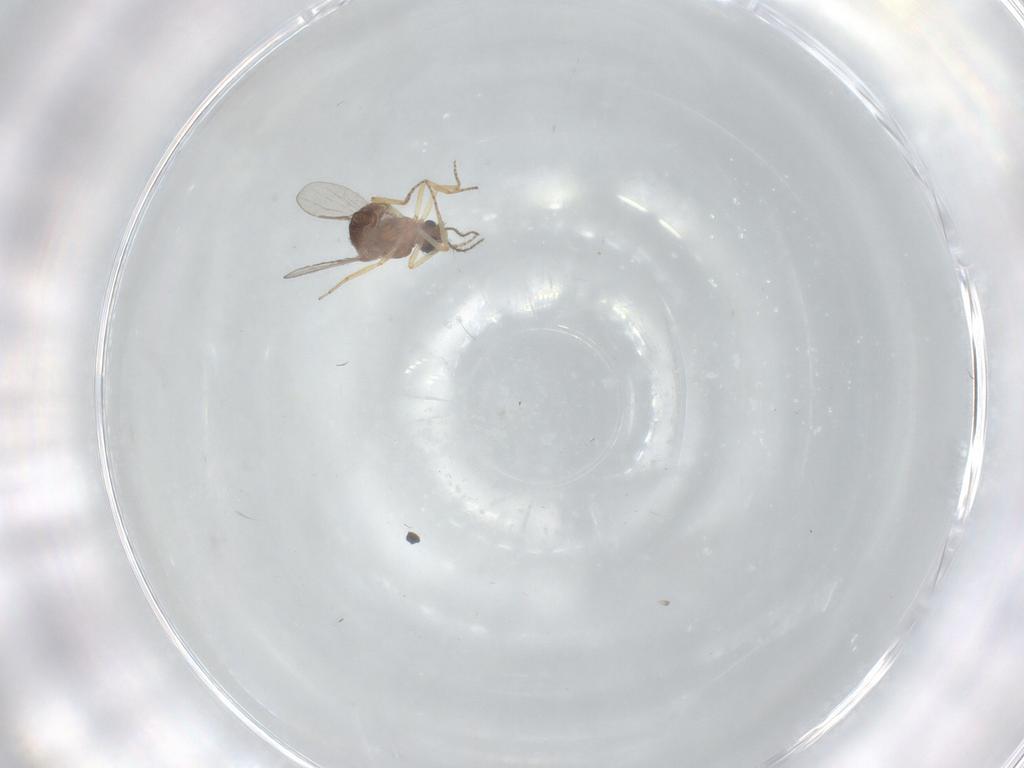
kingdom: Animalia
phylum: Arthropoda
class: Insecta
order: Diptera
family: Ceratopogonidae
